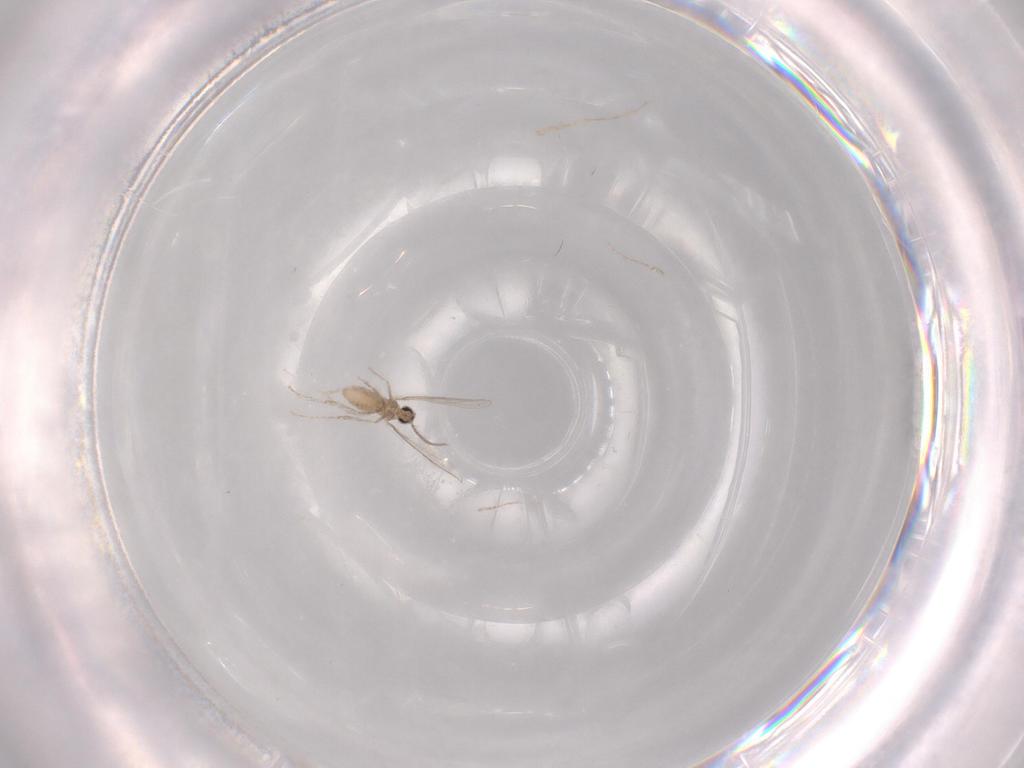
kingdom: Animalia
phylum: Arthropoda
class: Insecta
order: Diptera
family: Cecidomyiidae
